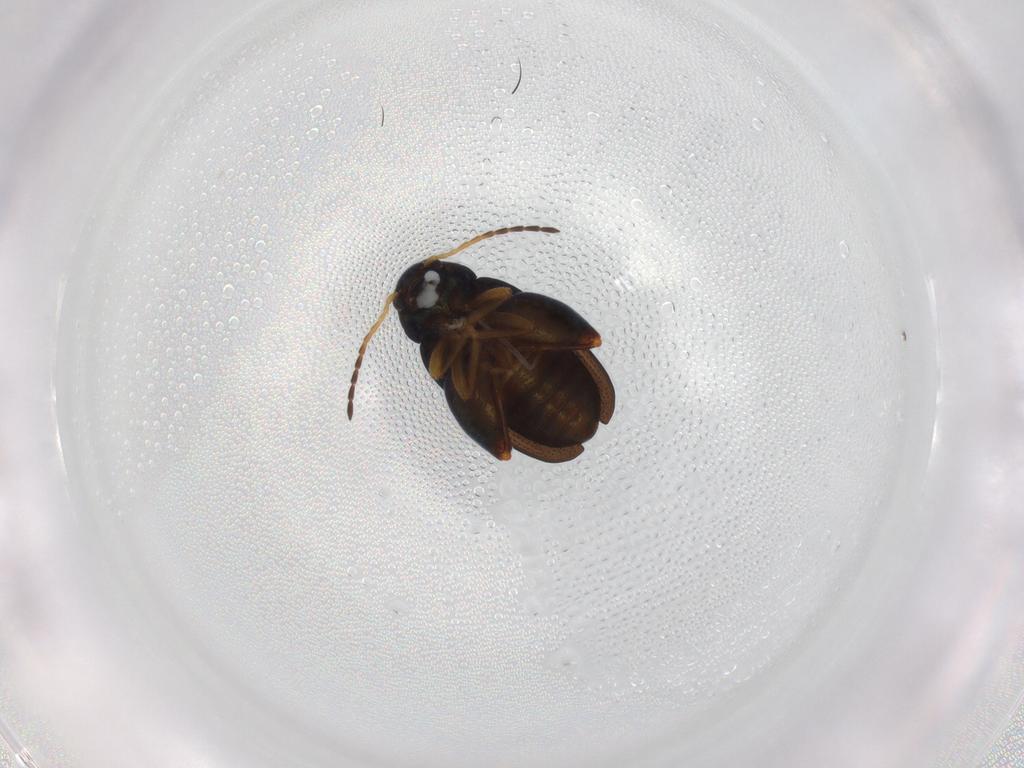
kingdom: Animalia
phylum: Arthropoda
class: Insecta
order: Coleoptera
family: Chrysomelidae
